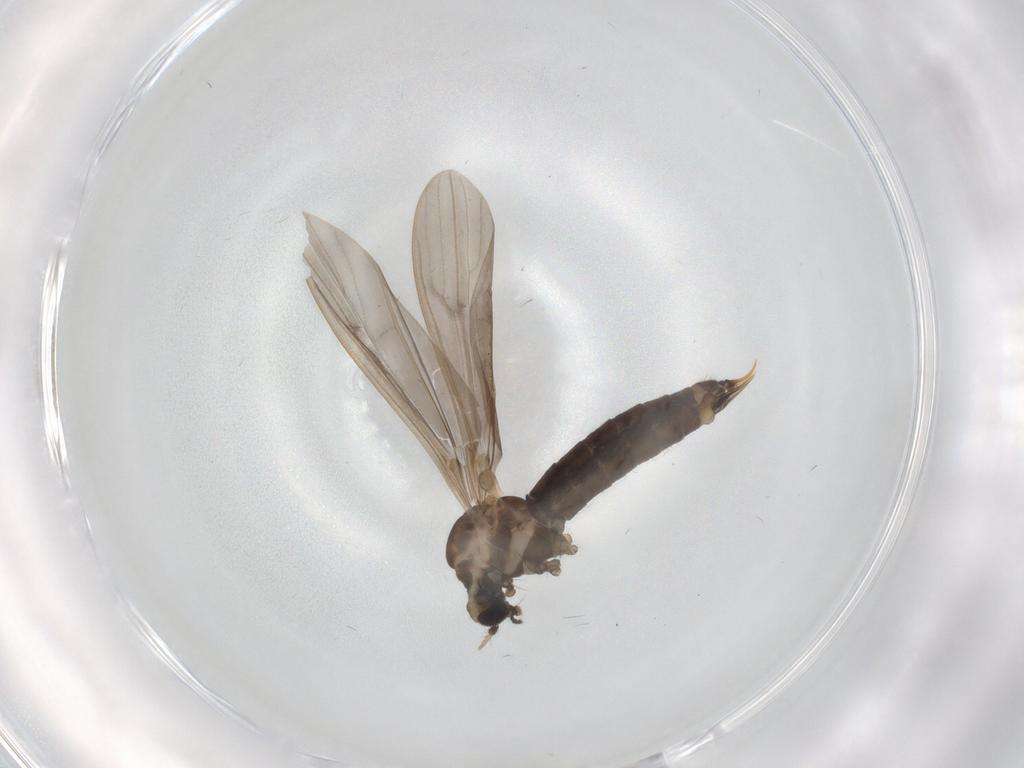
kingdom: Animalia
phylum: Arthropoda
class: Insecta
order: Diptera
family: Limoniidae
